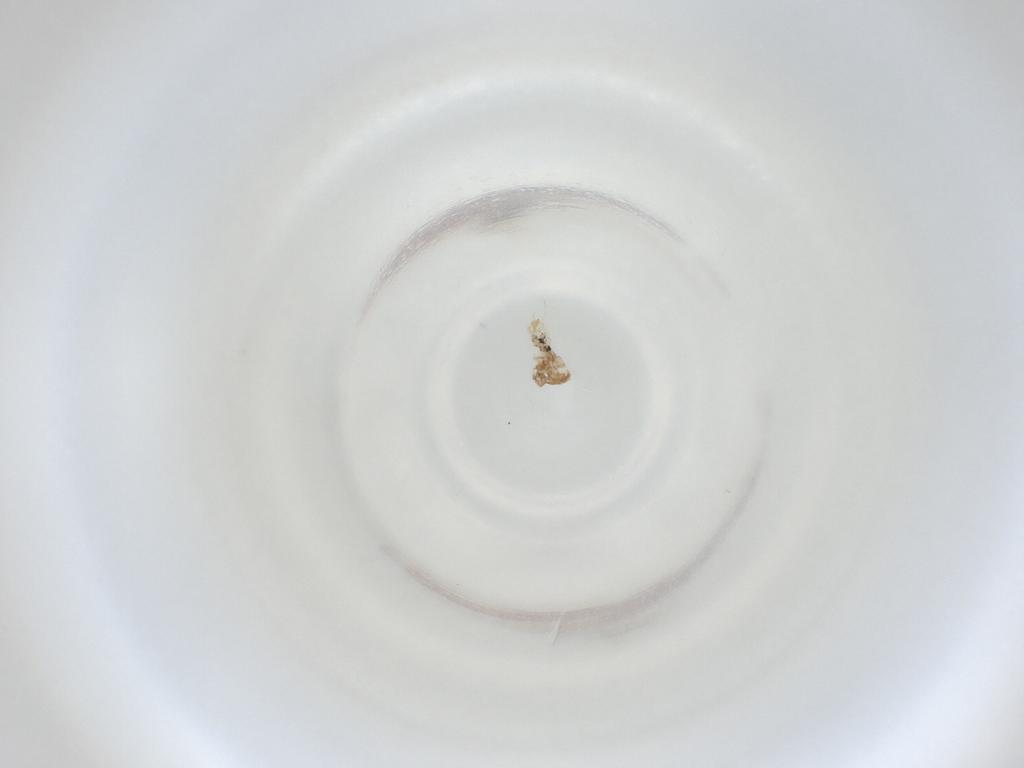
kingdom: Animalia
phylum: Arthropoda
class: Insecta
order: Diptera
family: Cecidomyiidae
